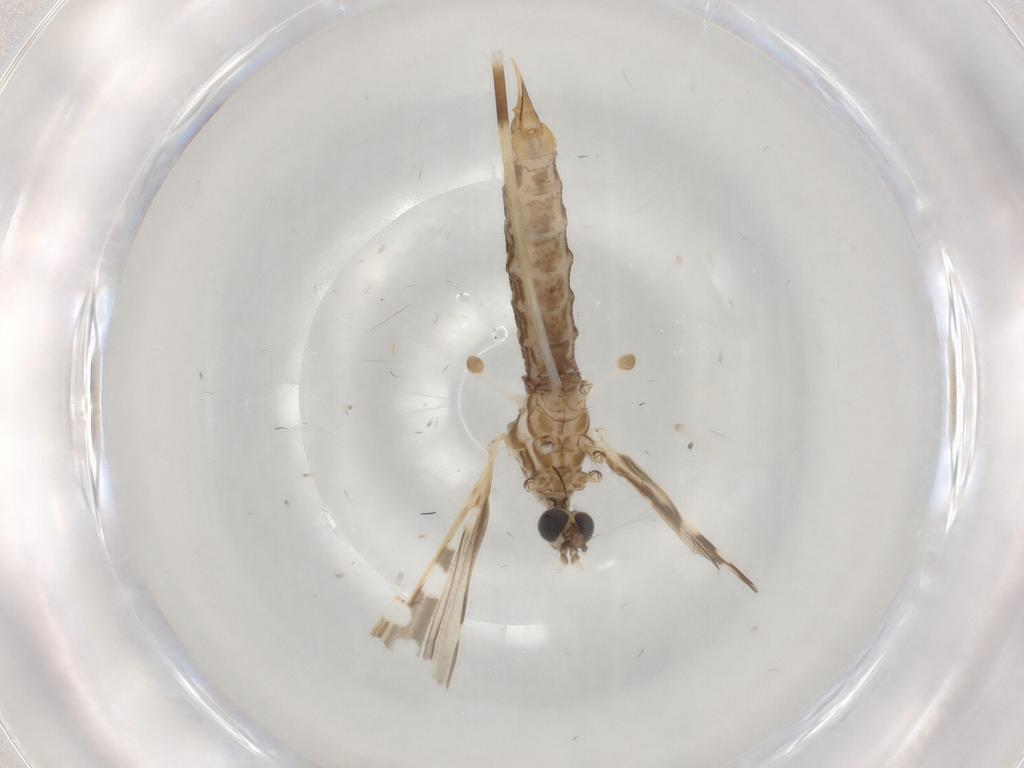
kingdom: Animalia
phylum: Arthropoda
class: Insecta
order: Diptera
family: Limoniidae
